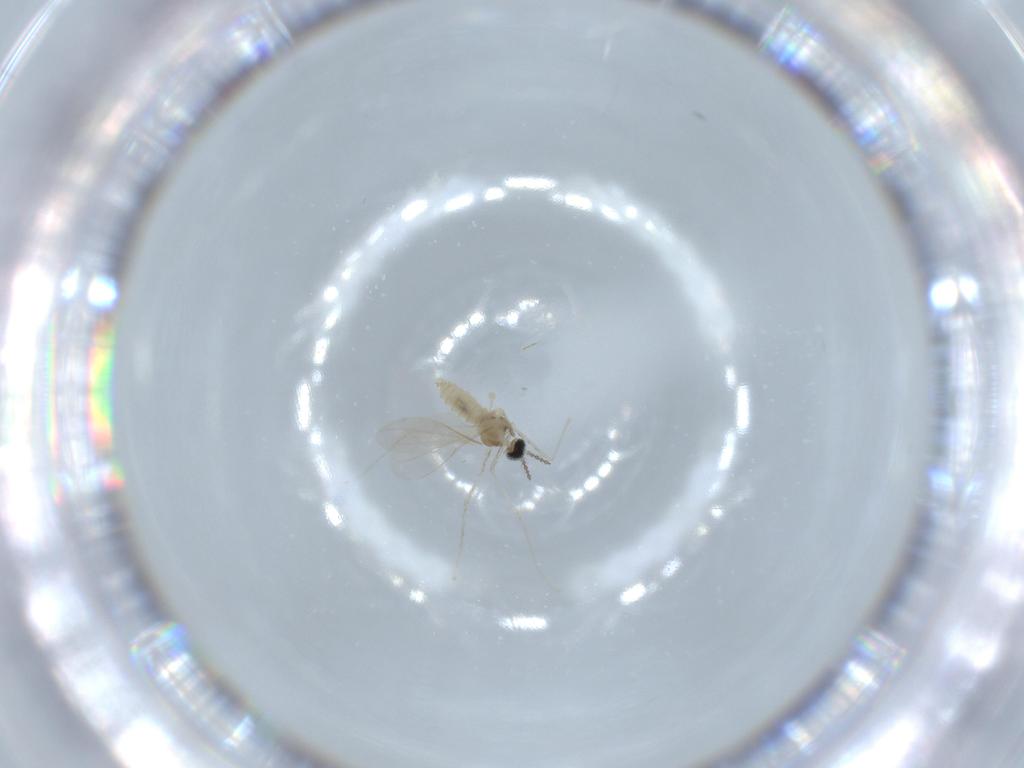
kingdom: Animalia
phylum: Arthropoda
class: Insecta
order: Diptera
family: Cecidomyiidae
